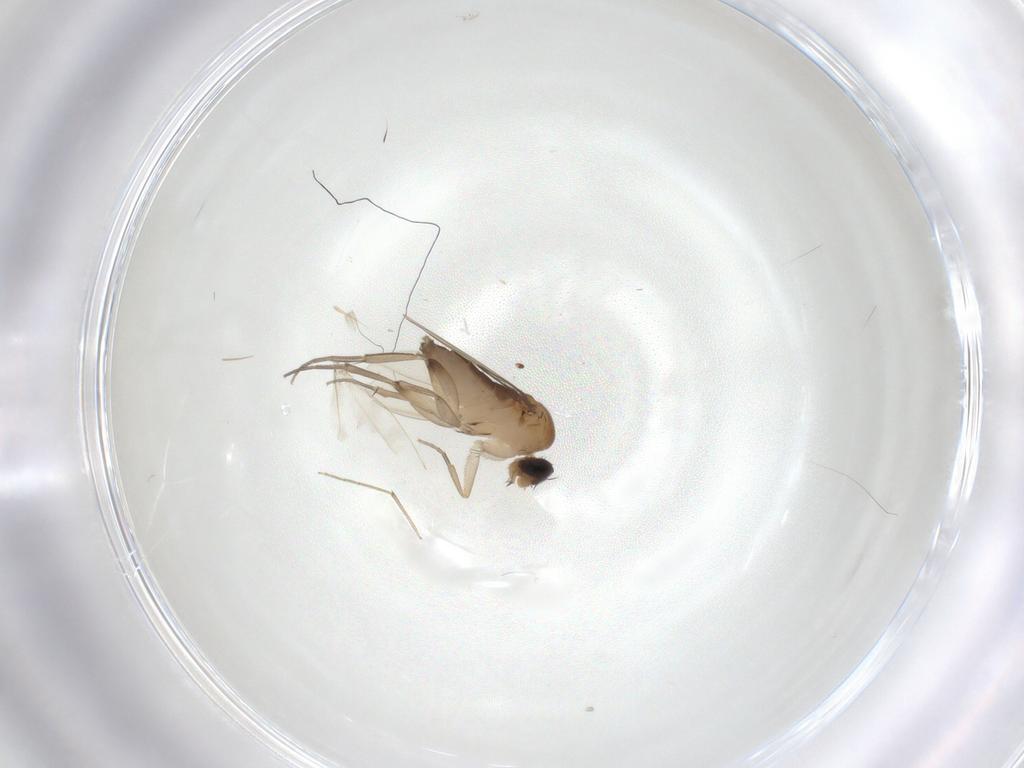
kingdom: Animalia
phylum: Arthropoda
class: Insecta
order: Diptera
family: Phoridae
